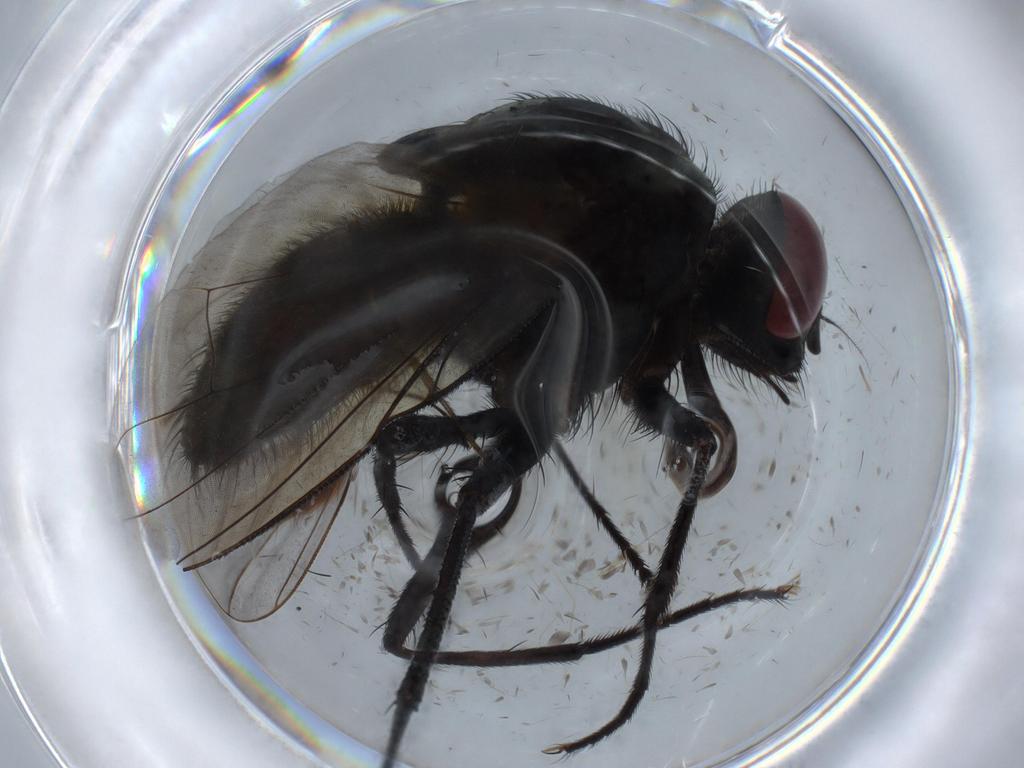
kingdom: Animalia
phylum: Arthropoda
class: Insecta
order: Diptera
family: Muscidae
